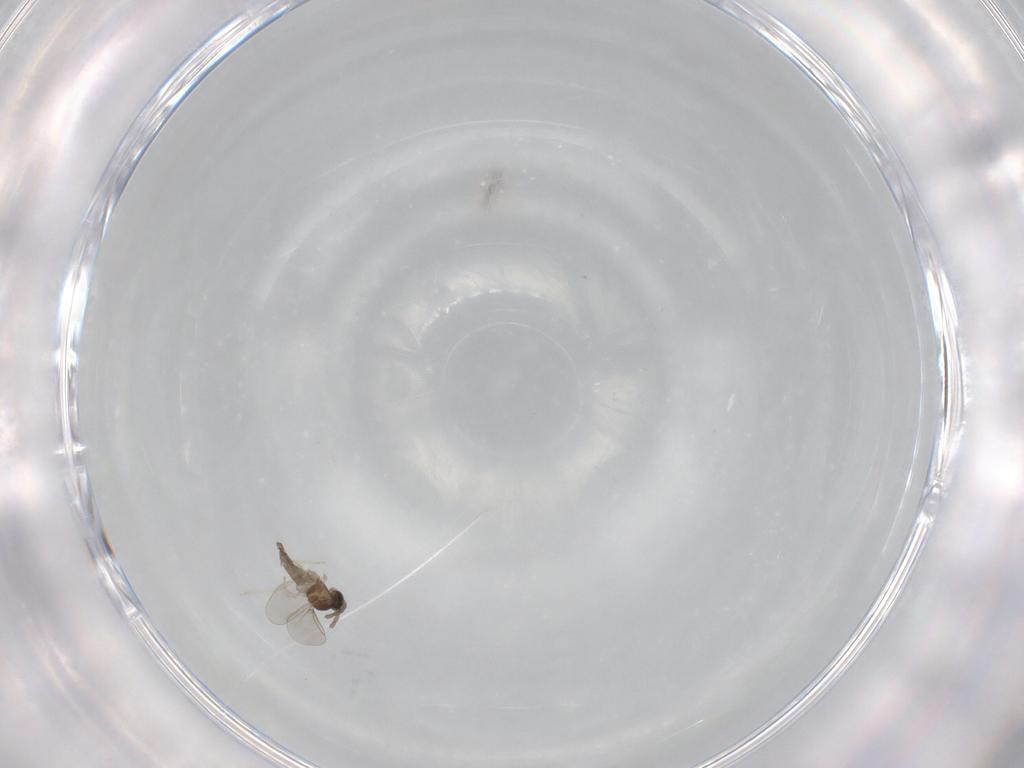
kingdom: Animalia
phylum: Arthropoda
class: Insecta
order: Diptera
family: Cecidomyiidae
